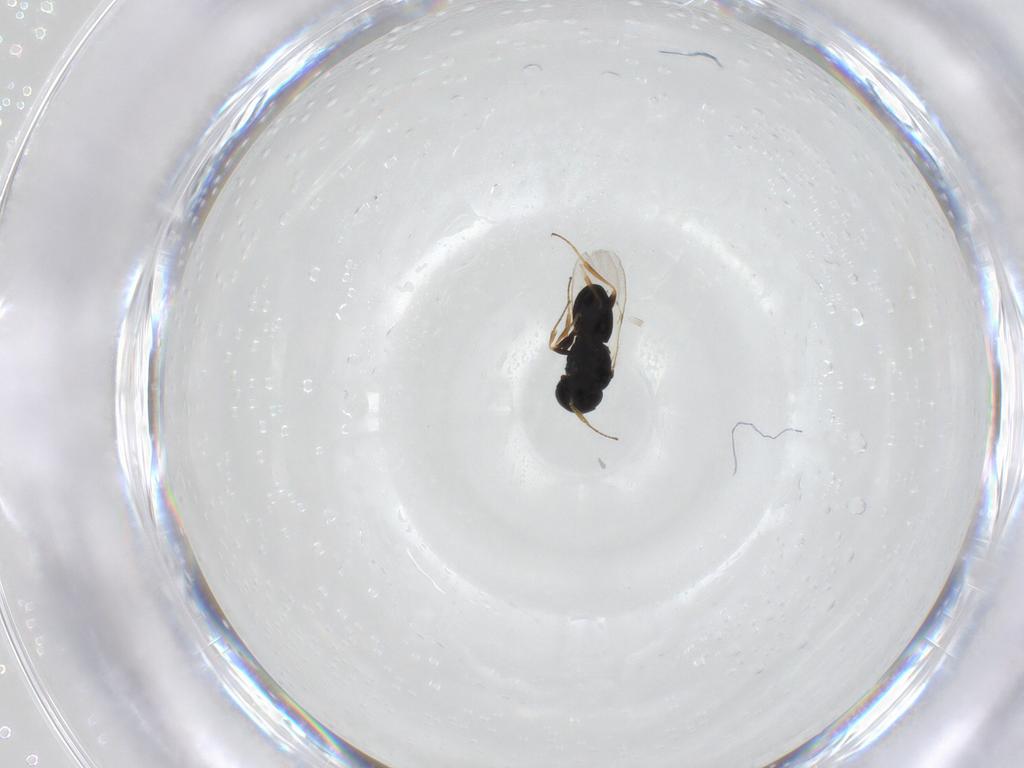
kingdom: Animalia
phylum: Arthropoda
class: Insecta
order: Hymenoptera
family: Scelionidae
